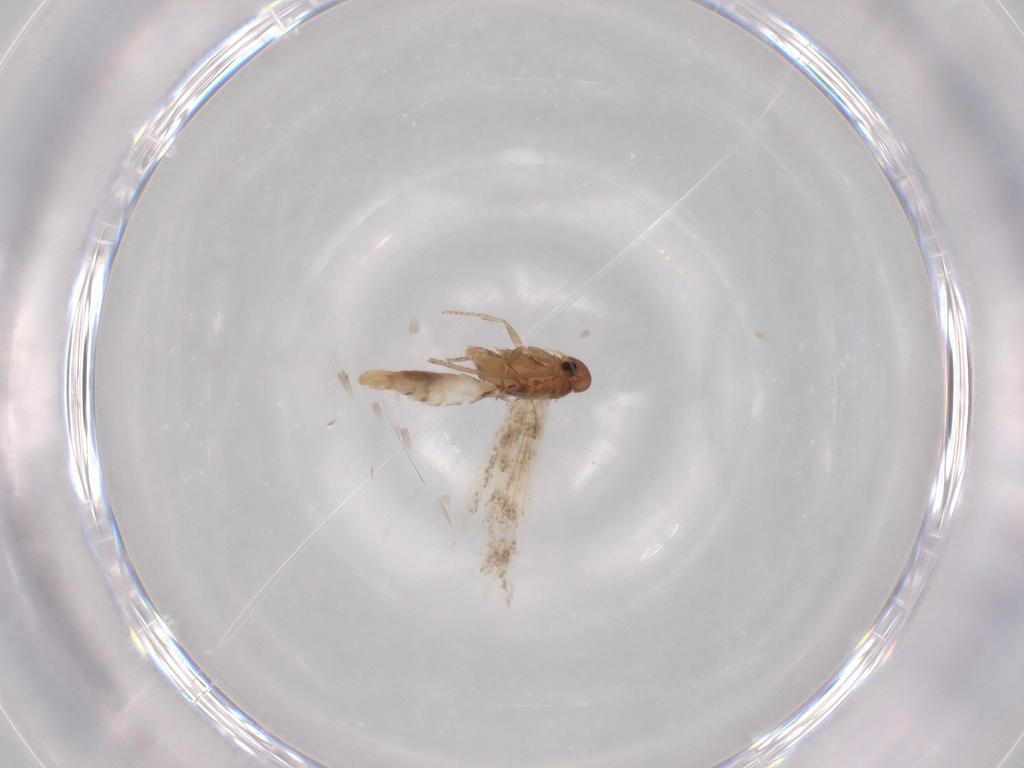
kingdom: Animalia
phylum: Arthropoda
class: Insecta
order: Lepidoptera
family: Elachistidae
